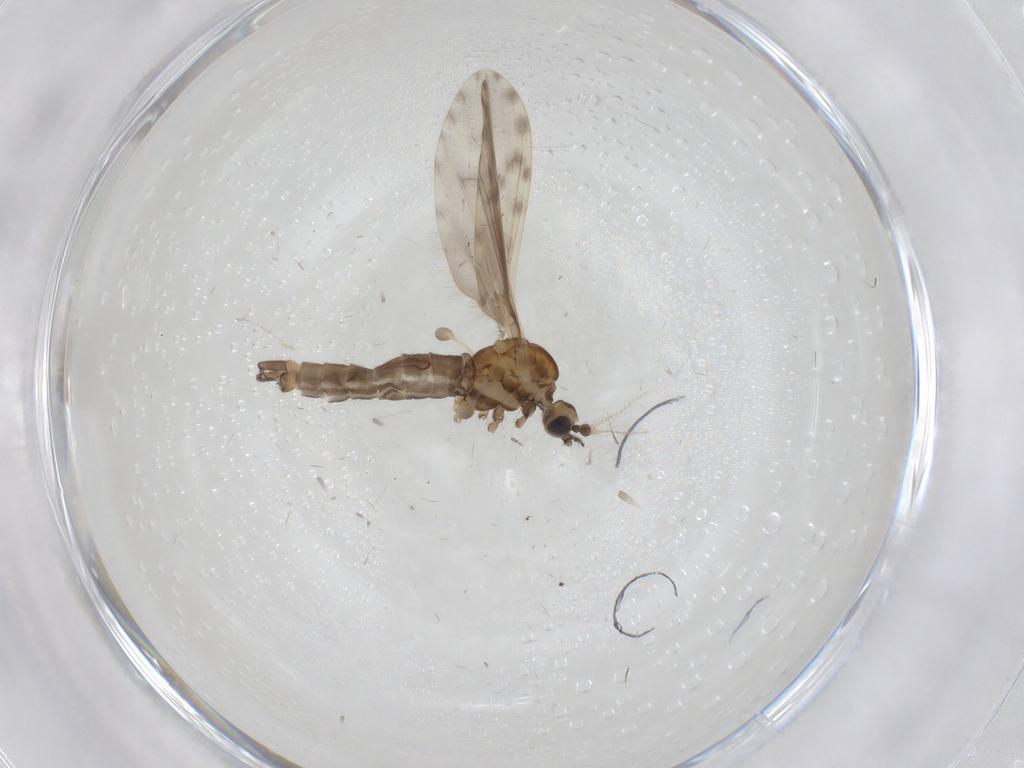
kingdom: Animalia
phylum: Arthropoda
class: Insecta
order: Diptera
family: Limoniidae
